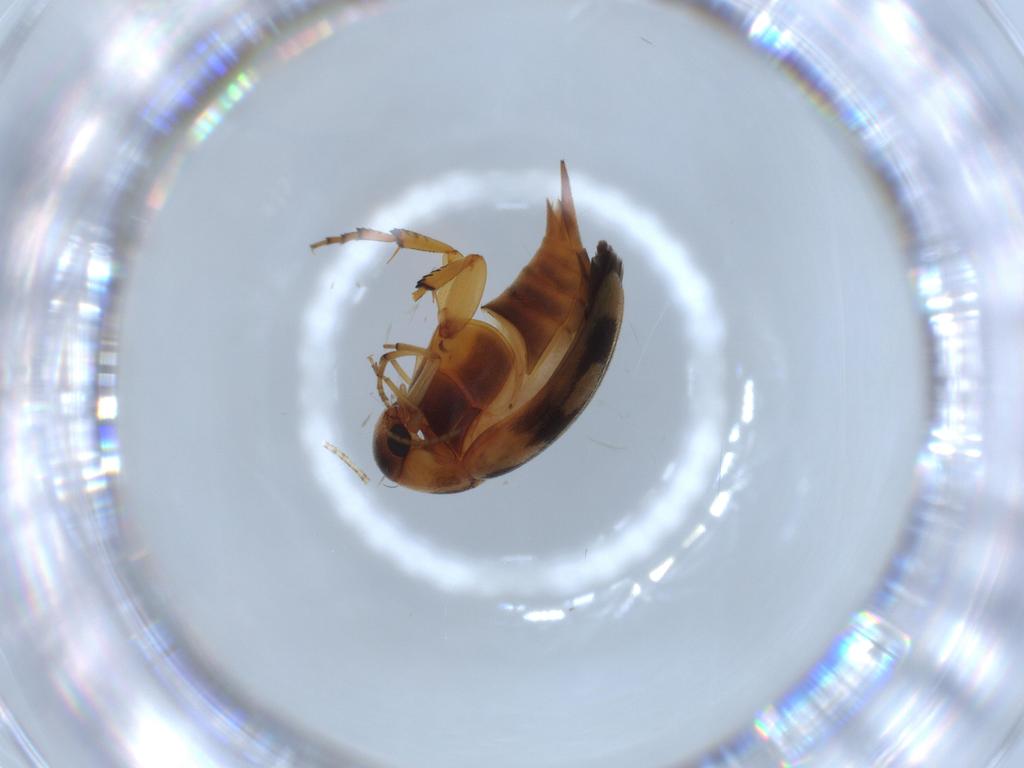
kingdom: Animalia
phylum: Arthropoda
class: Insecta
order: Coleoptera
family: Mordellidae
